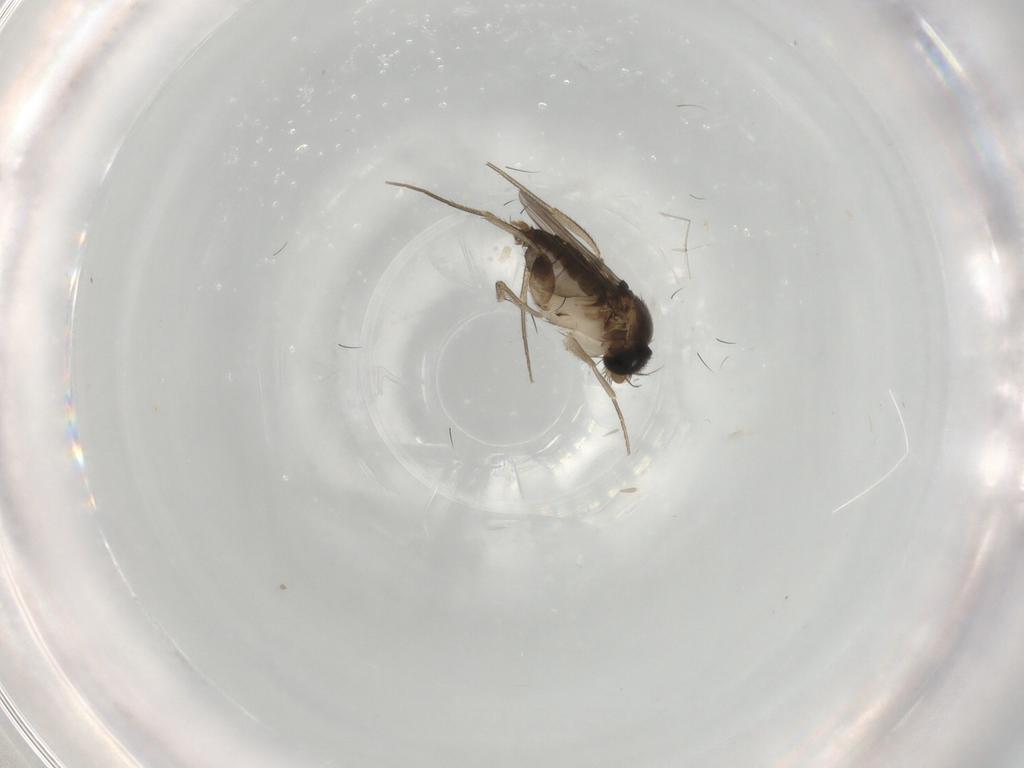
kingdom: Animalia
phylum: Arthropoda
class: Insecta
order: Diptera
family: Phoridae
